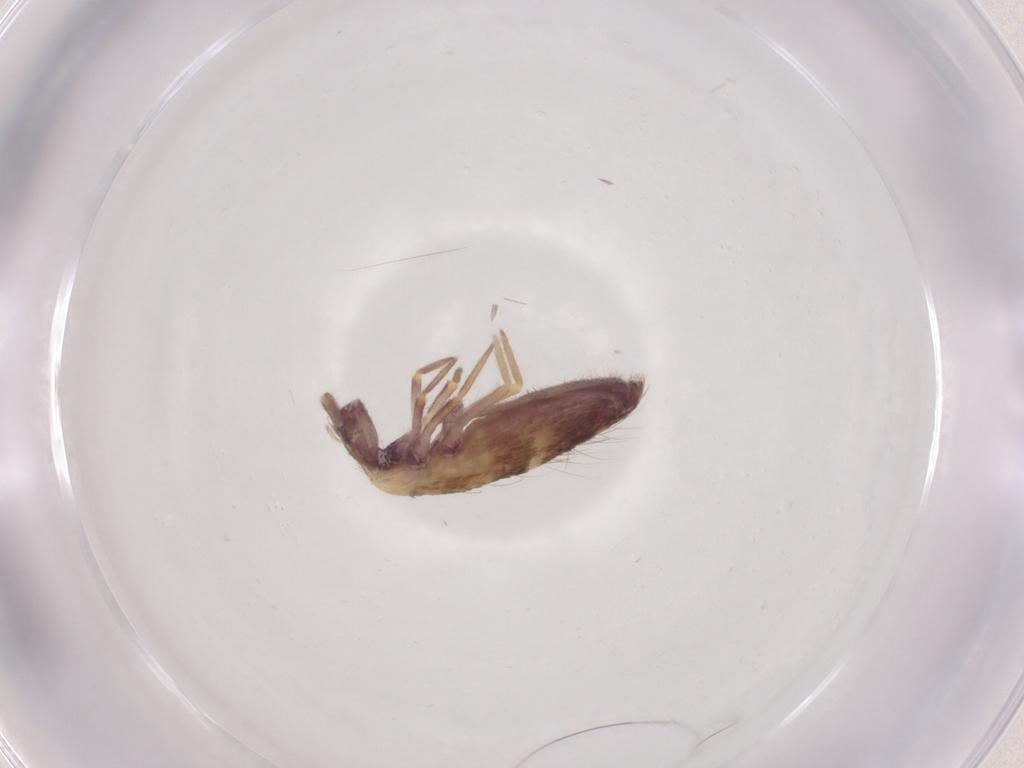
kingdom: Animalia
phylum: Arthropoda
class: Collembola
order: Entomobryomorpha
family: Entomobryidae
